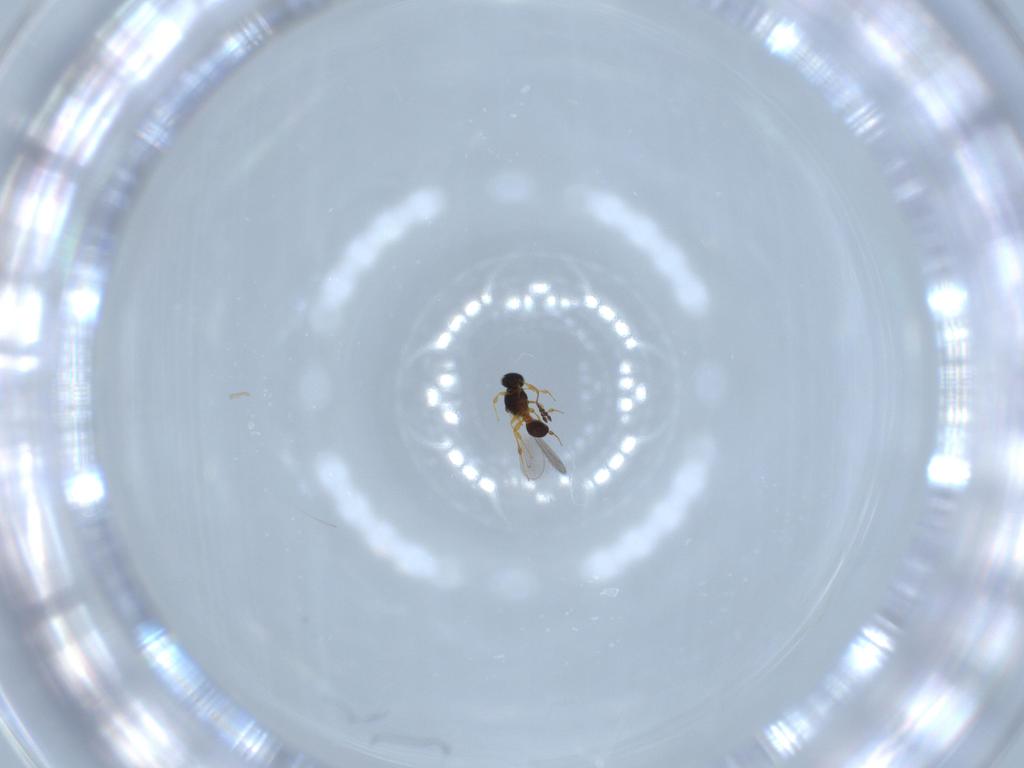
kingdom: Animalia
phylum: Arthropoda
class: Insecta
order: Hymenoptera
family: Platygastridae
